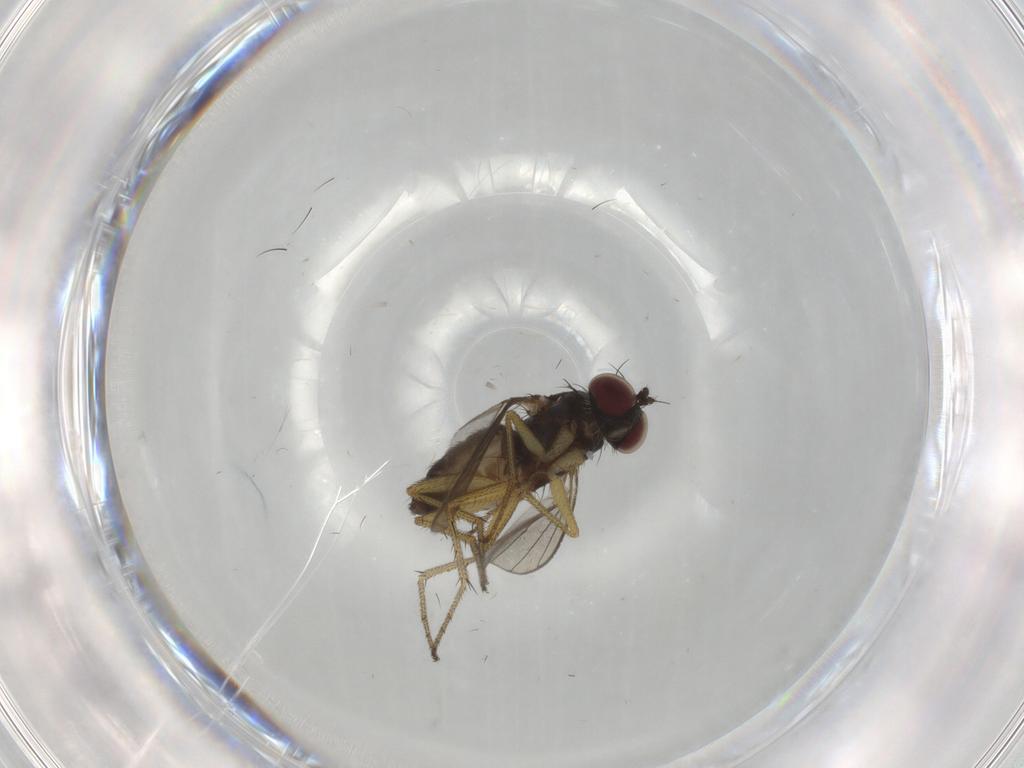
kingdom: Animalia
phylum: Arthropoda
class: Insecta
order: Diptera
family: Dolichopodidae
